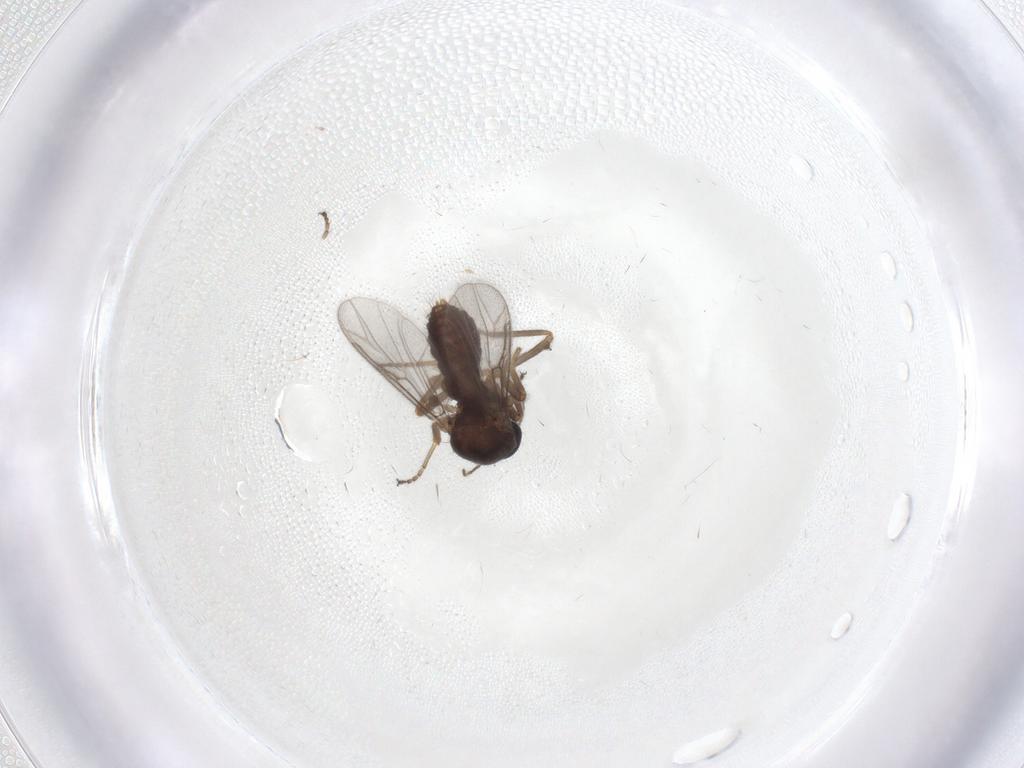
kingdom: Animalia
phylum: Arthropoda
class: Insecta
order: Diptera
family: Ceratopogonidae
